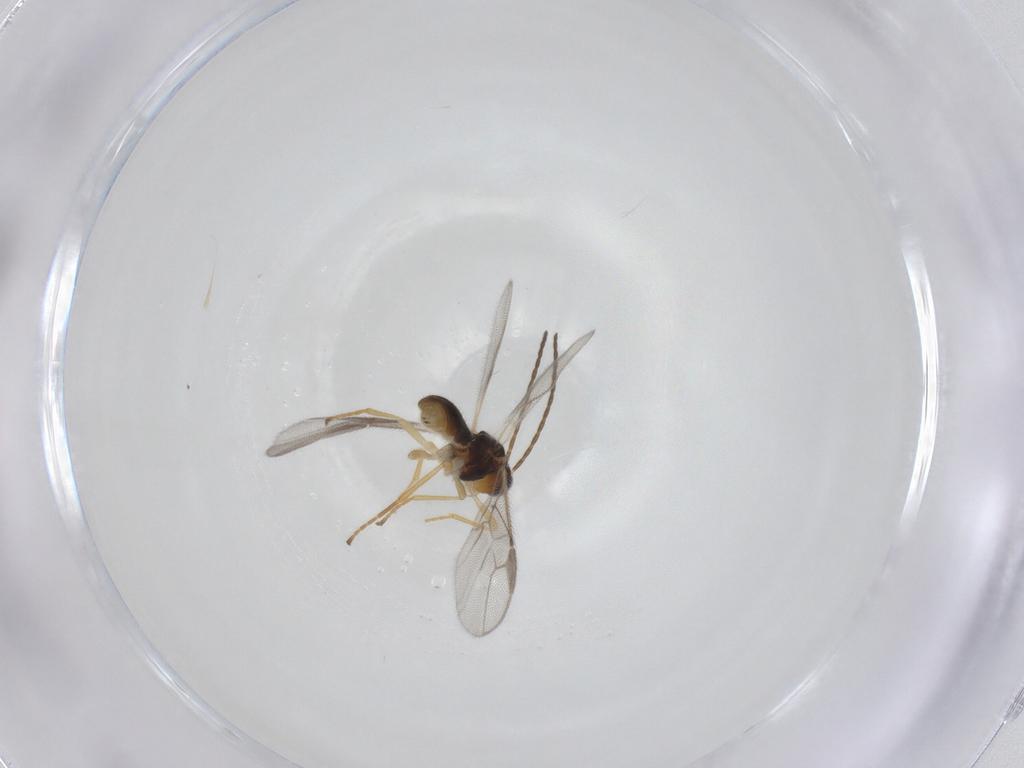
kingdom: Animalia
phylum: Arthropoda
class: Insecta
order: Hymenoptera
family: Braconidae
